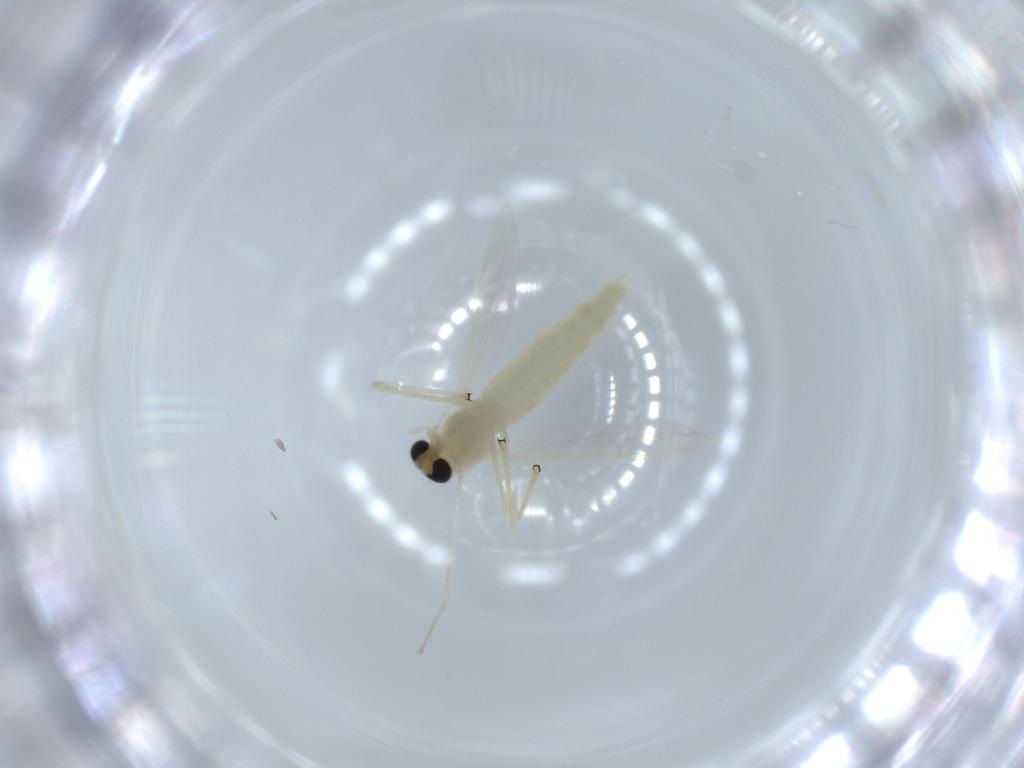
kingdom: Animalia
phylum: Arthropoda
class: Insecta
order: Diptera
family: Chironomidae
